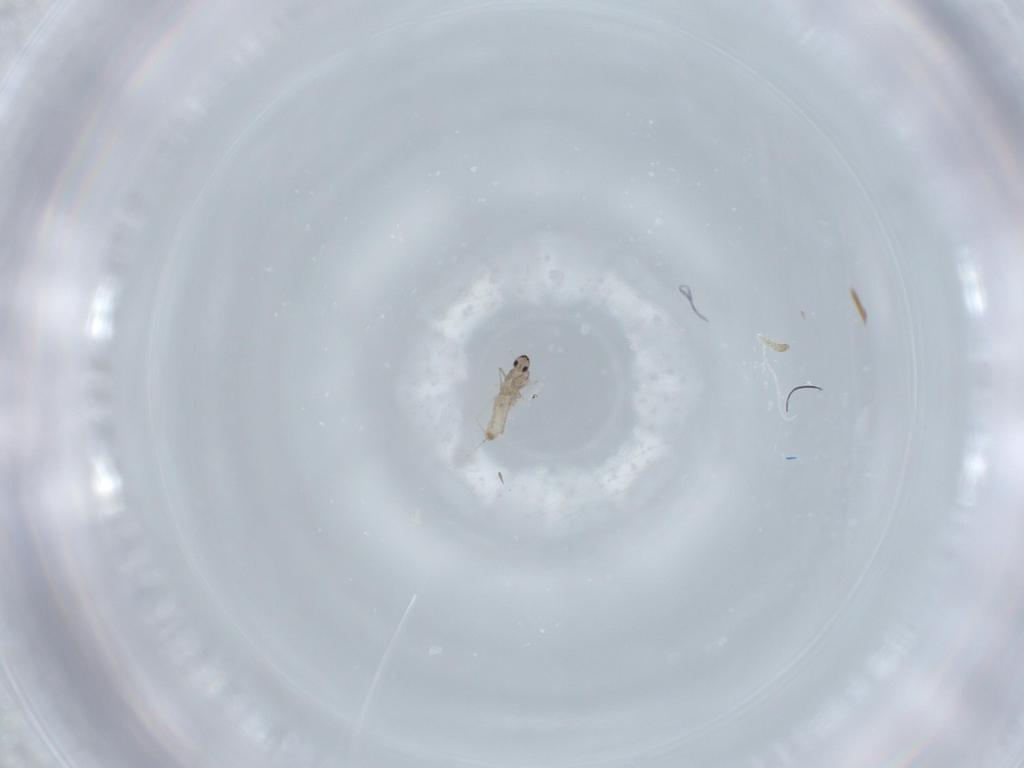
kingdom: Animalia
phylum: Arthropoda
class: Insecta
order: Diptera
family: Cecidomyiidae
